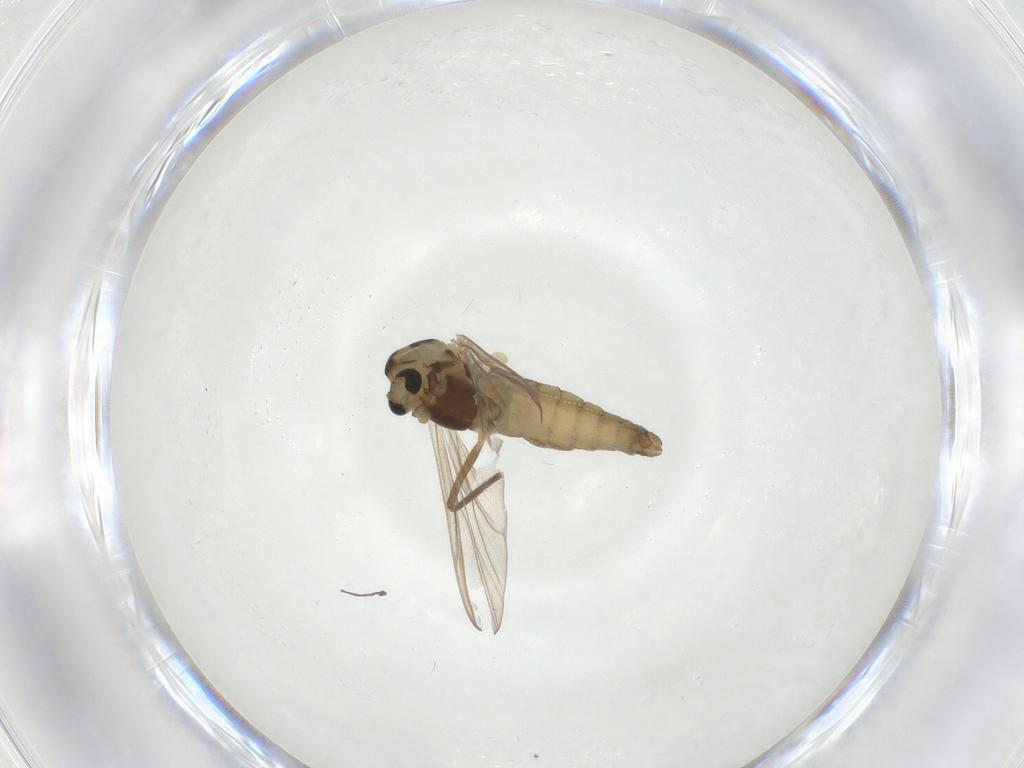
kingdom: Animalia
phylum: Arthropoda
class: Insecta
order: Diptera
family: Chironomidae
